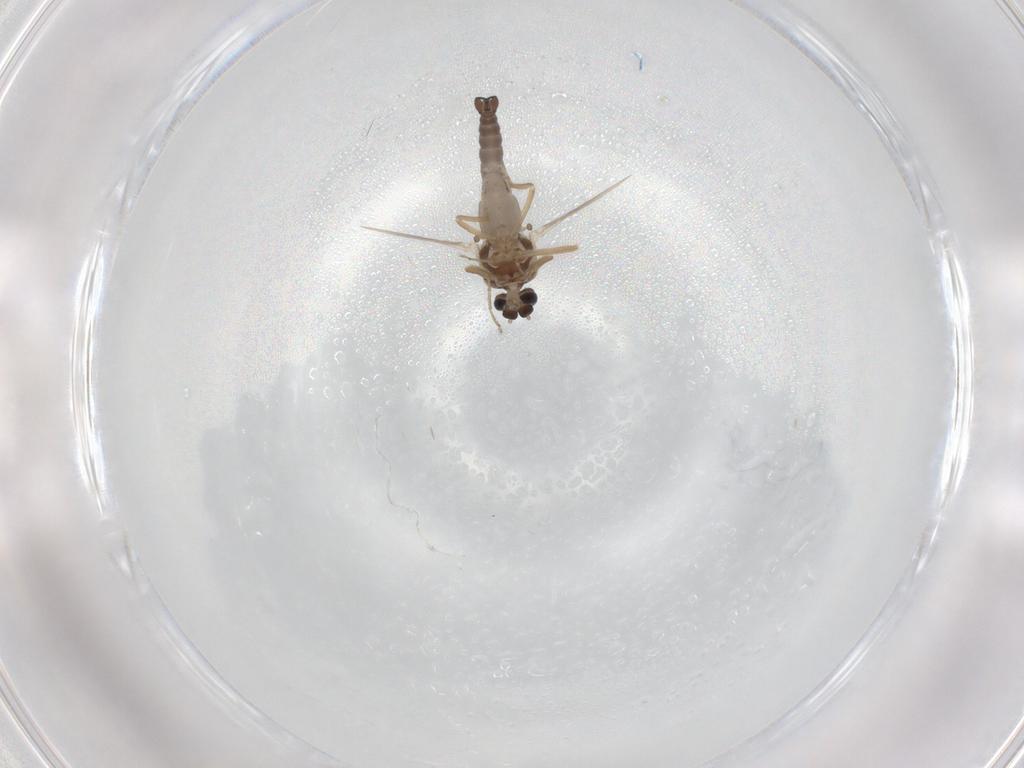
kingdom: Animalia
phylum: Arthropoda
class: Insecta
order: Diptera
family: Ceratopogonidae
